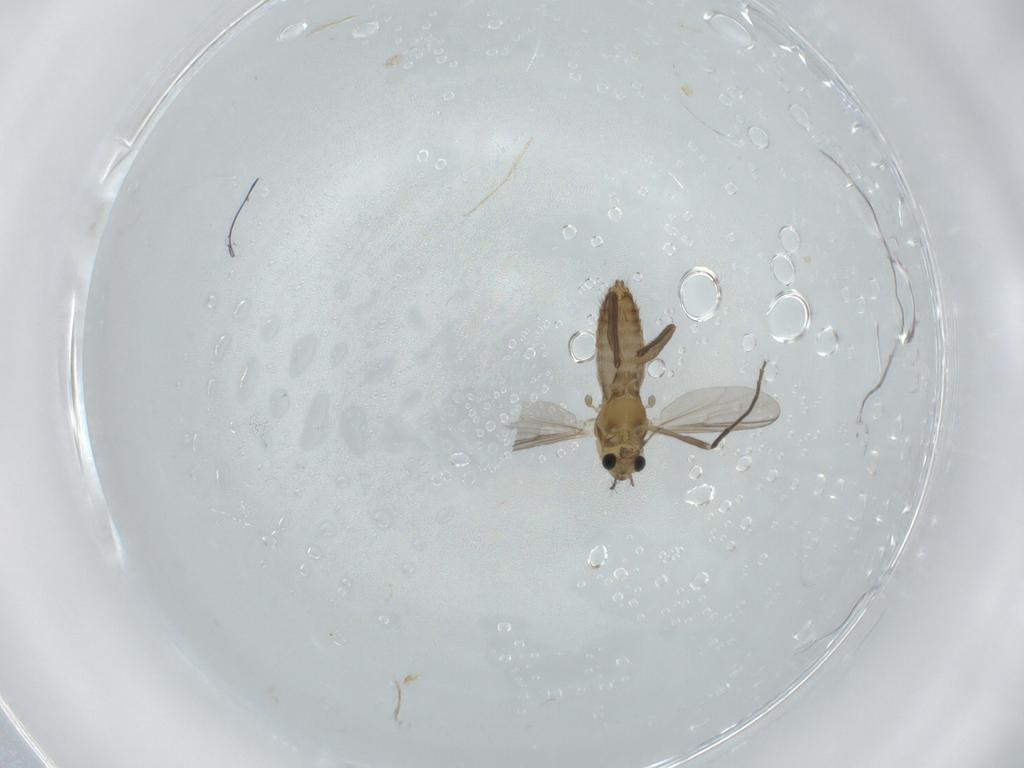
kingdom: Animalia
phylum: Arthropoda
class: Insecta
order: Diptera
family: Chironomidae
